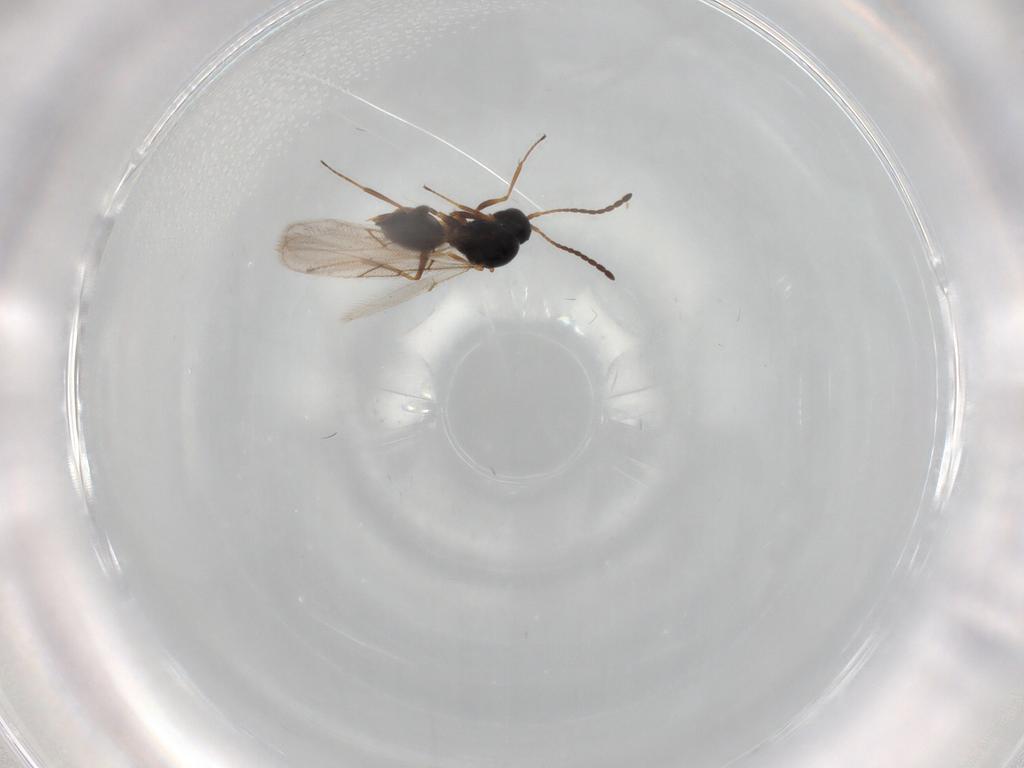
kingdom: Animalia
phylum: Arthropoda
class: Insecta
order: Hymenoptera
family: Figitidae
